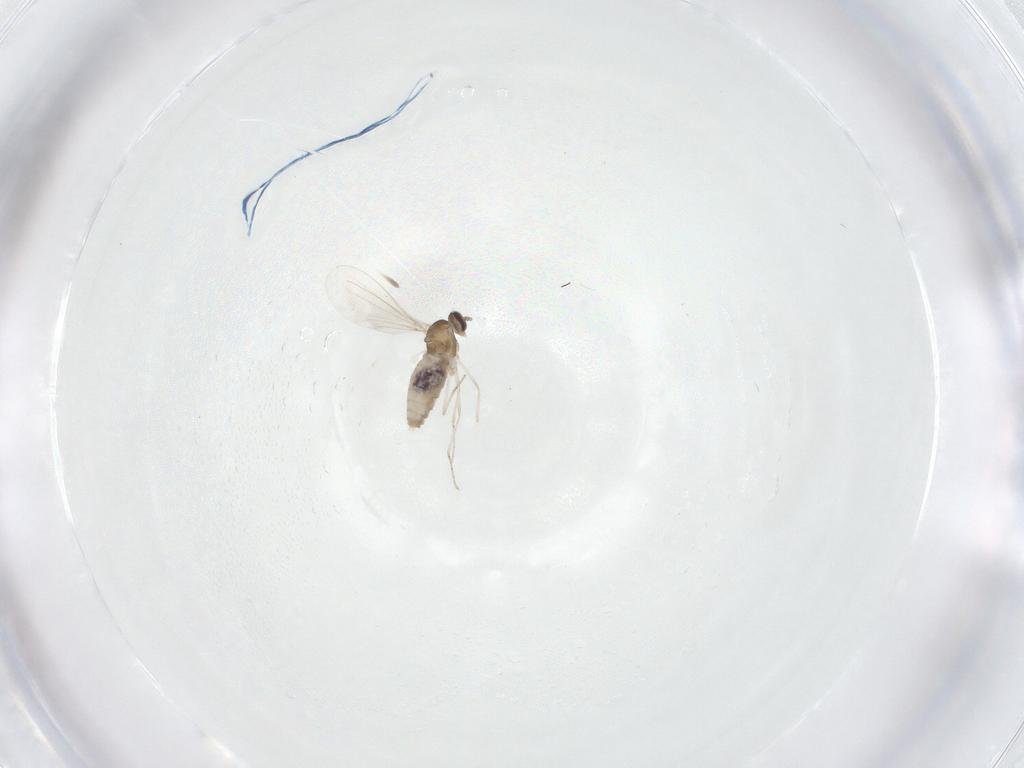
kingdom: Animalia
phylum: Arthropoda
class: Insecta
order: Diptera
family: Cecidomyiidae
